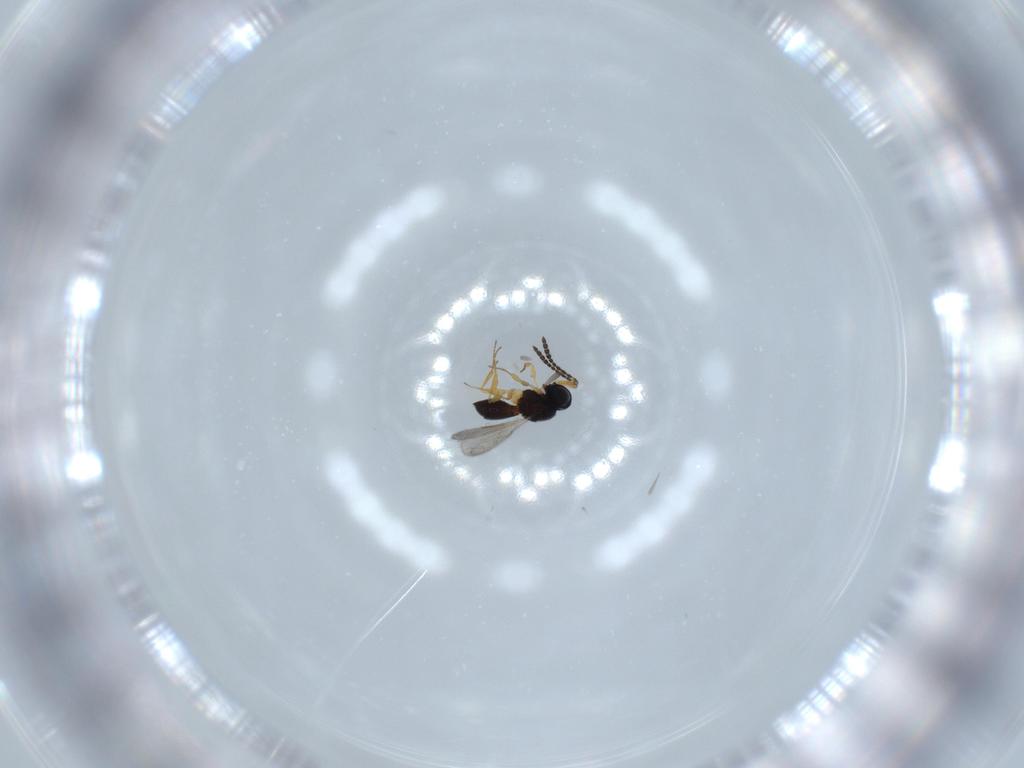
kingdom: Animalia
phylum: Arthropoda
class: Insecta
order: Hymenoptera
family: Scelionidae
